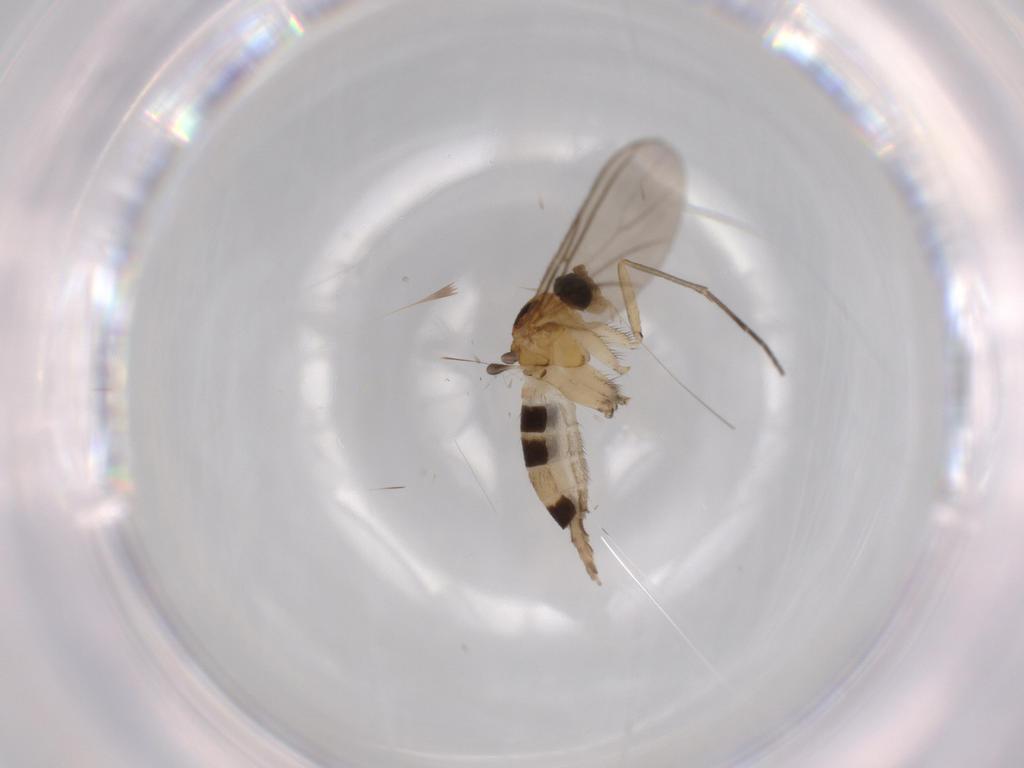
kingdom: Animalia
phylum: Arthropoda
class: Insecta
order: Diptera
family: Sciaridae
